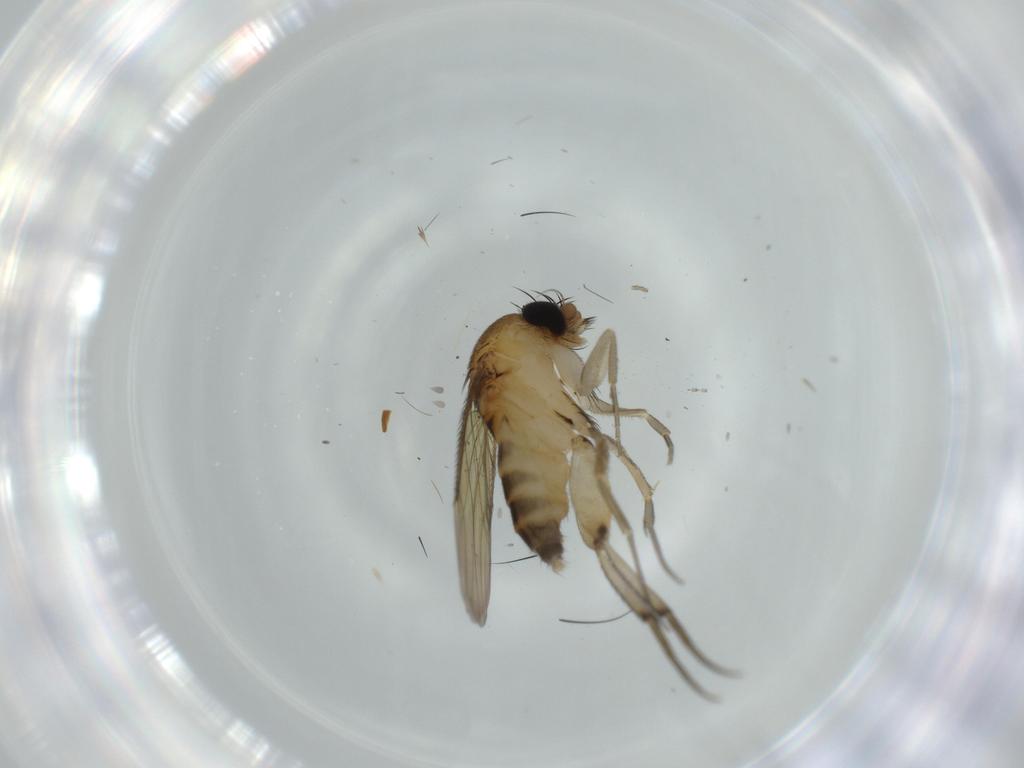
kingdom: Animalia
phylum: Arthropoda
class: Insecta
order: Diptera
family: Phoridae
